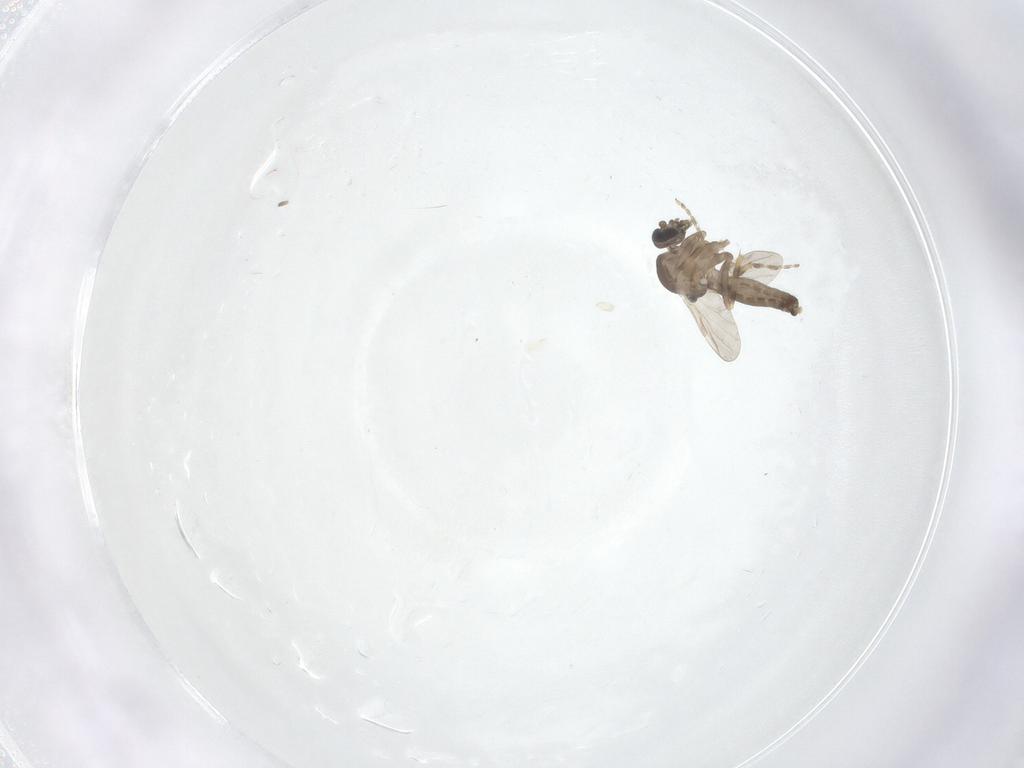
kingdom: Animalia
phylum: Arthropoda
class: Insecta
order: Diptera
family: Ceratopogonidae
